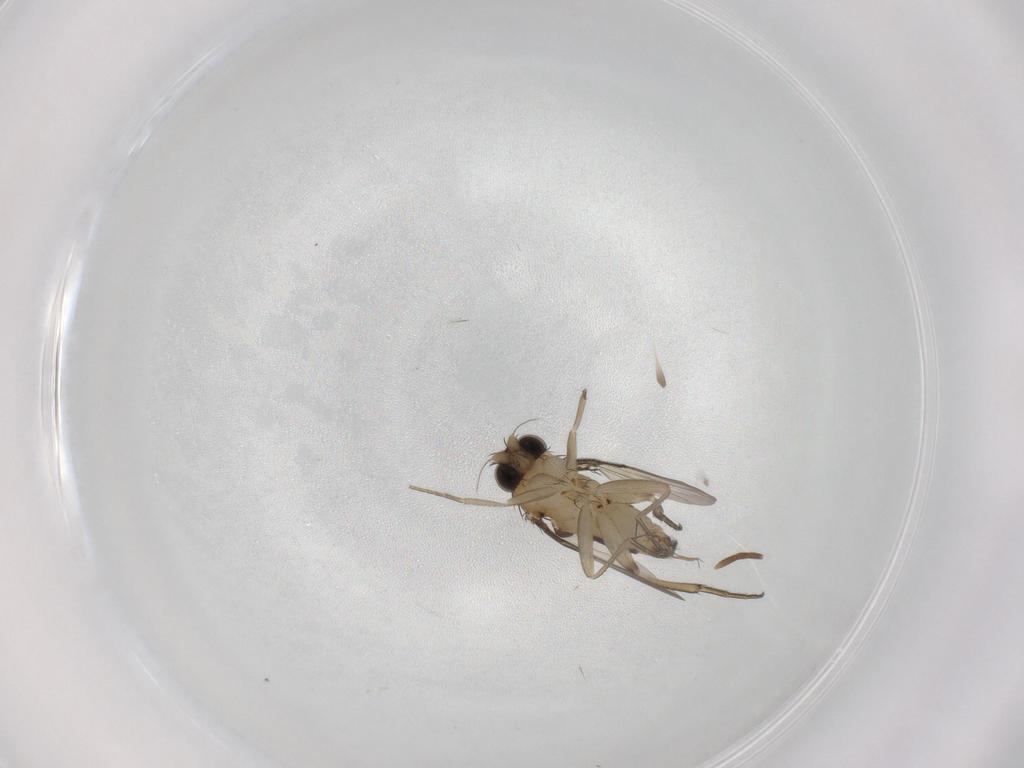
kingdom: Animalia
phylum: Arthropoda
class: Insecta
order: Diptera
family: Phoridae
